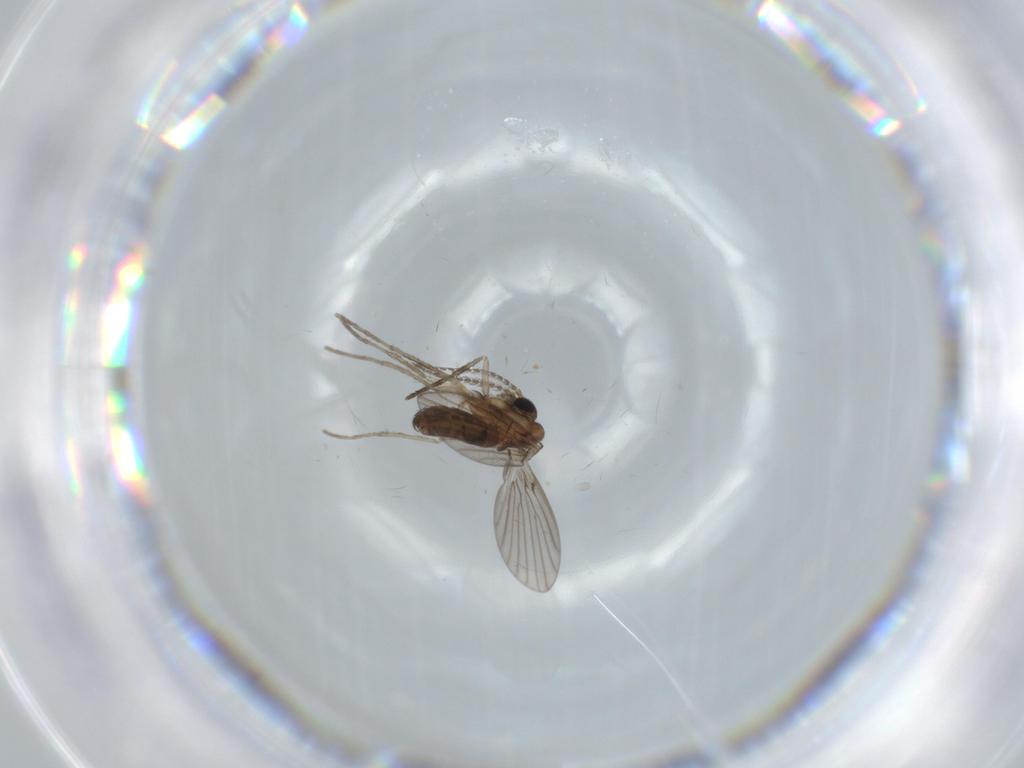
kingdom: Animalia
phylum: Arthropoda
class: Insecta
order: Diptera
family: Psychodidae
